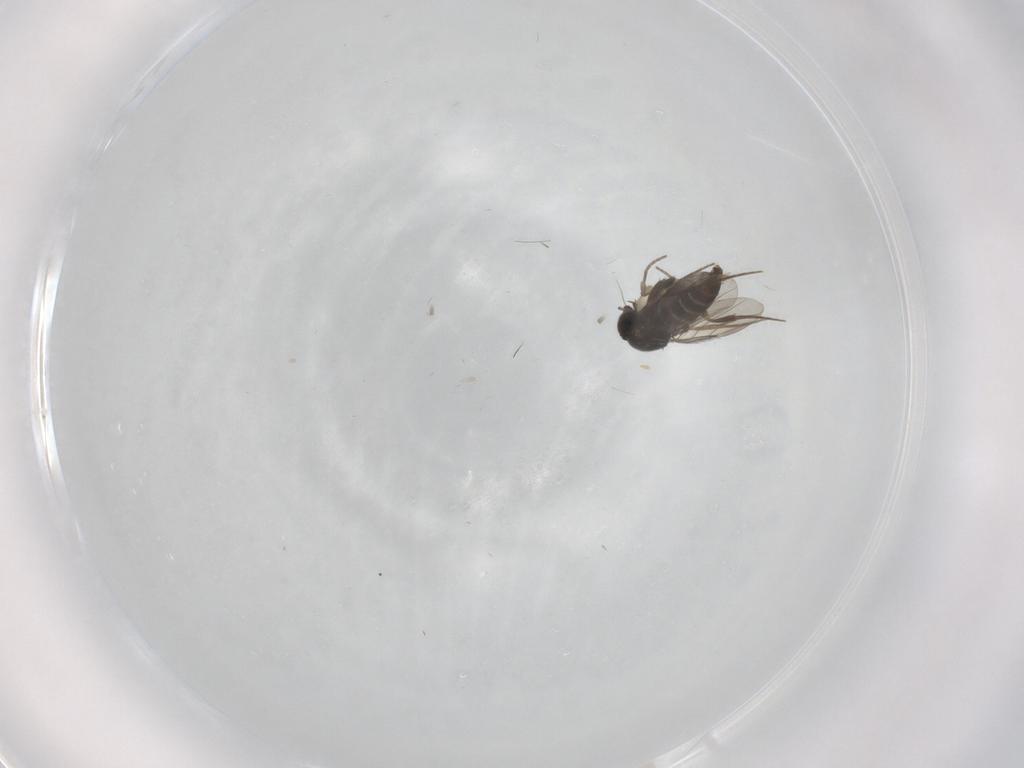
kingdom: Animalia
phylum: Arthropoda
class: Insecta
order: Diptera
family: Phoridae
